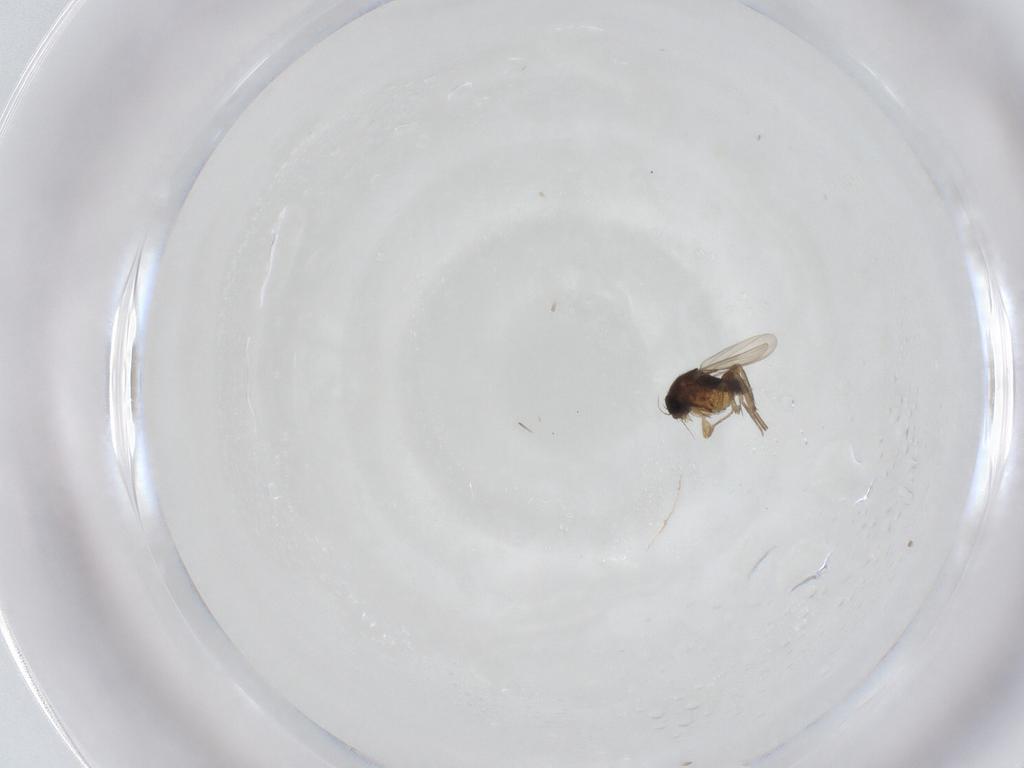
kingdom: Animalia
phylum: Arthropoda
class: Insecta
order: Diptera
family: Phoridae
